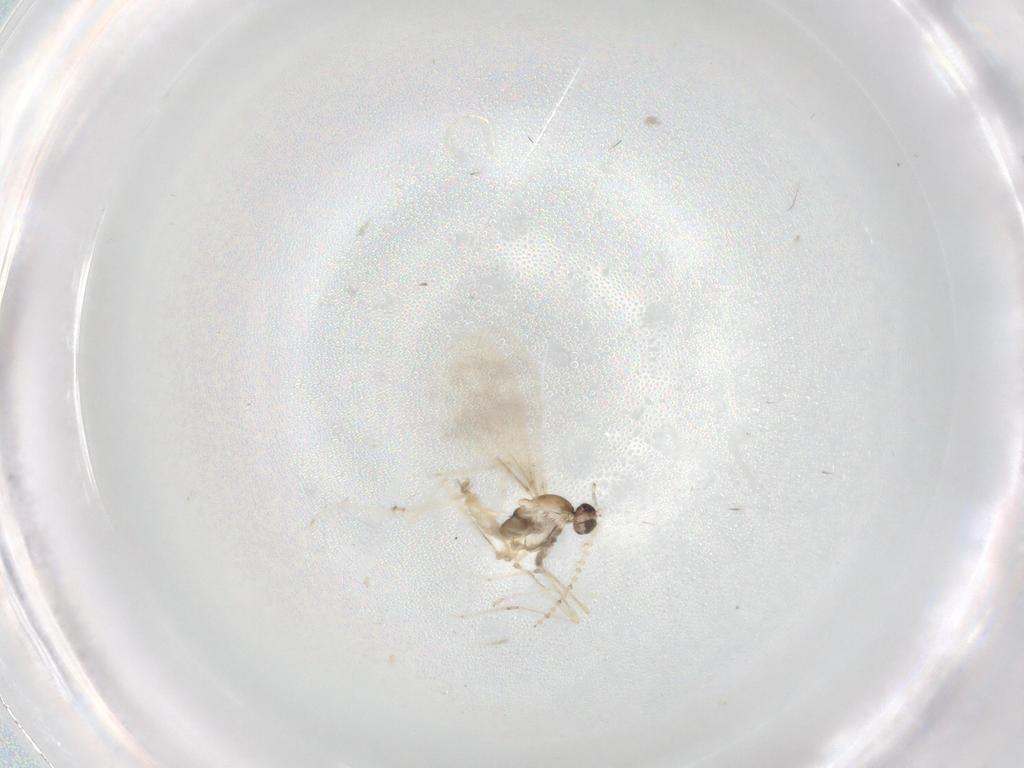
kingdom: Animalia
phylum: Arthropoda
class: Insecta
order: Diptera
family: Cecidomyiidae
